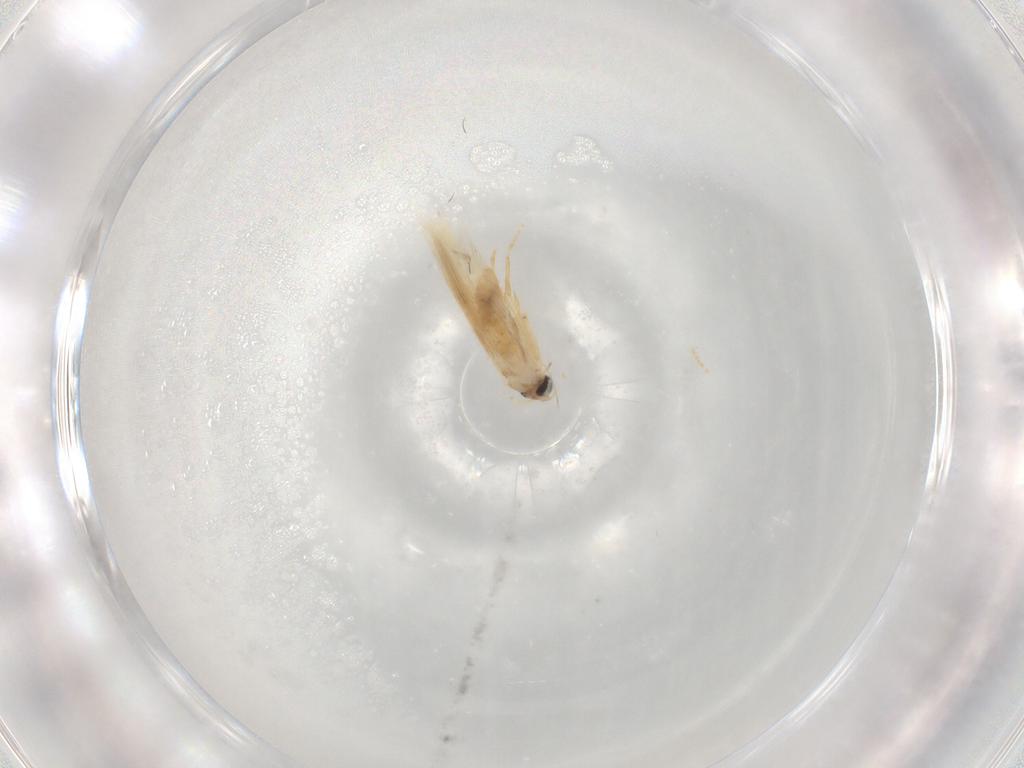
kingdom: Animalia
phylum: Arthropoda
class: Insecta
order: Lepidoptera
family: Nepticulidae
